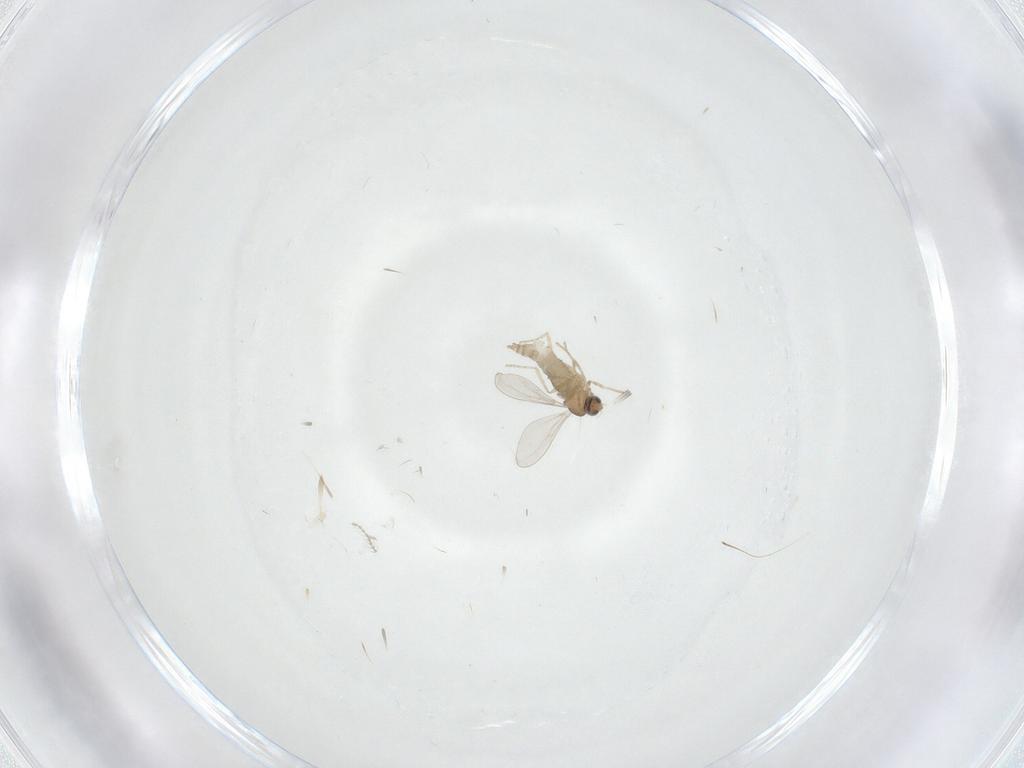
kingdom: Animalia
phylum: Arthropoda
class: Insecta
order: Diptera
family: Cecidomyiidae
